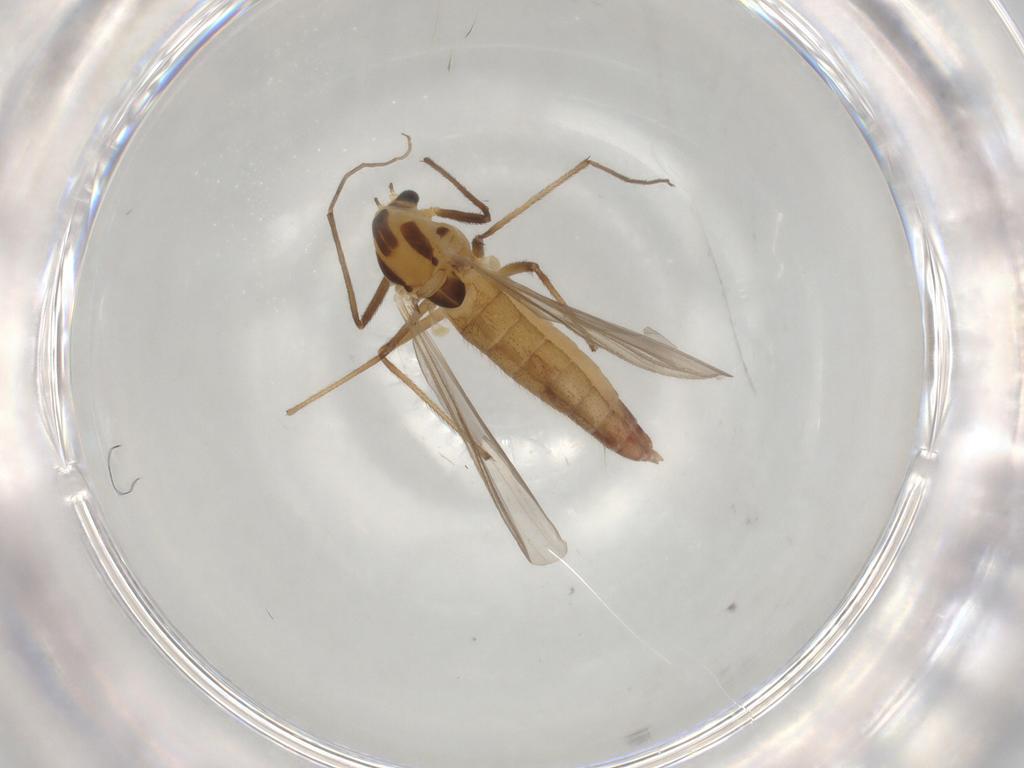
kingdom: Animalia
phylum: Arthropoda
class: Insecta
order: Diptera
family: Chironomidae
